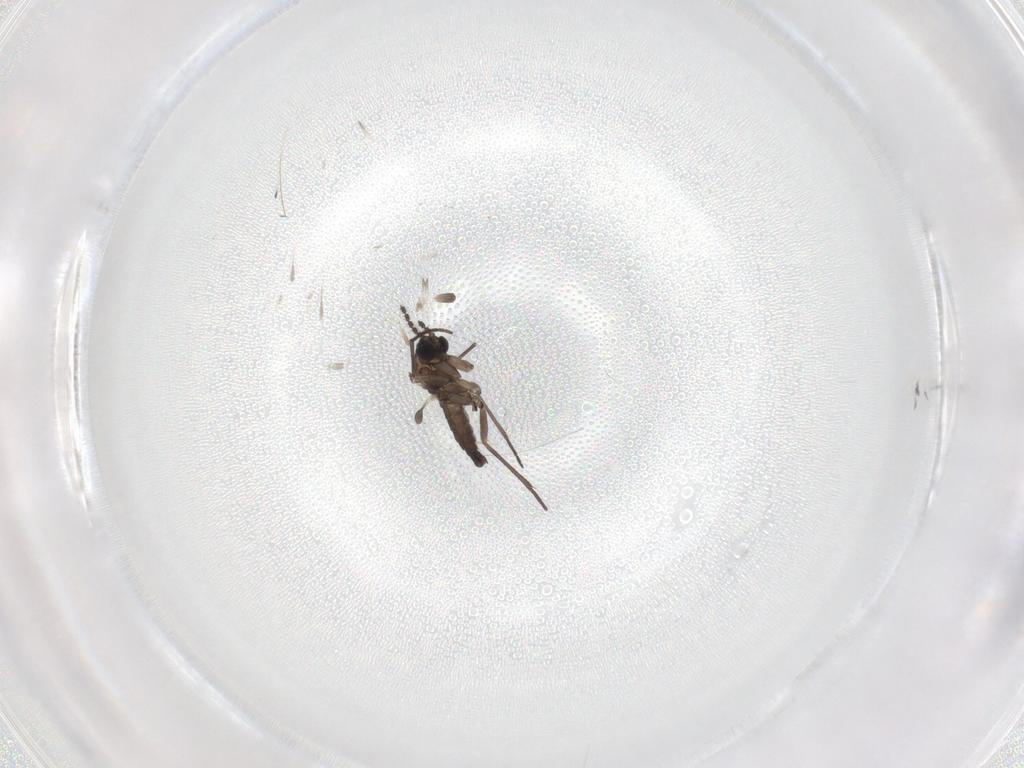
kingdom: Animalia
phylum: Arthropoda
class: Insecta
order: Diptera
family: Sciaridae
